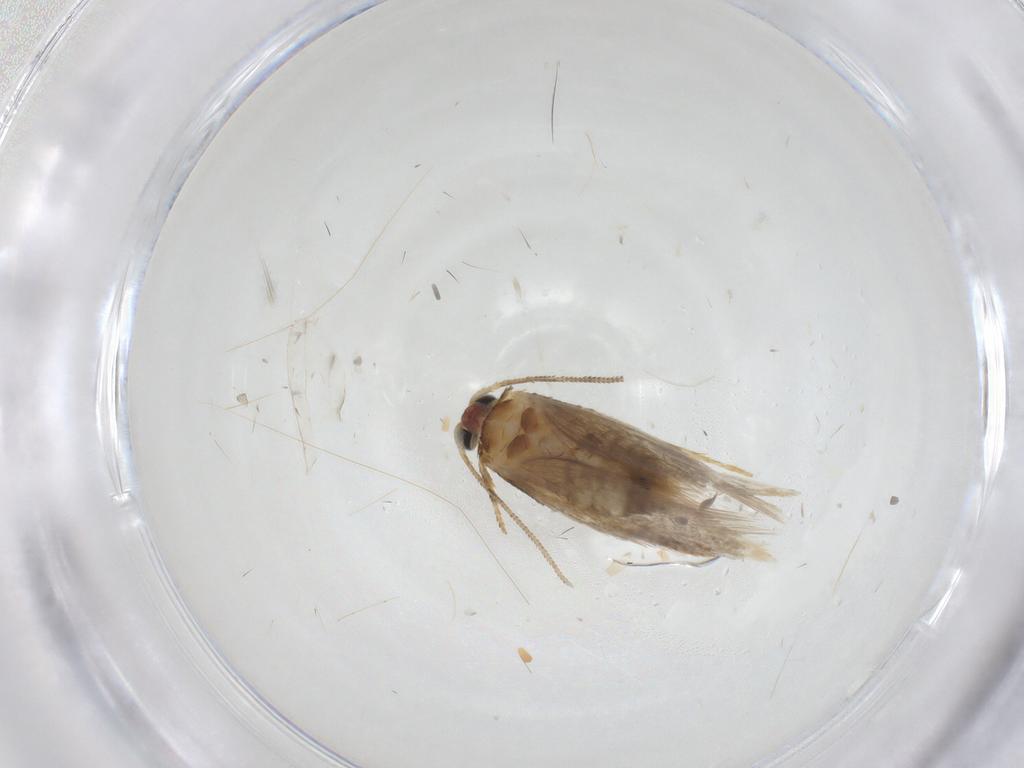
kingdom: Animalia
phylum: Arthropoda
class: Insecta
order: Lepidoptera
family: Nepticulidae
